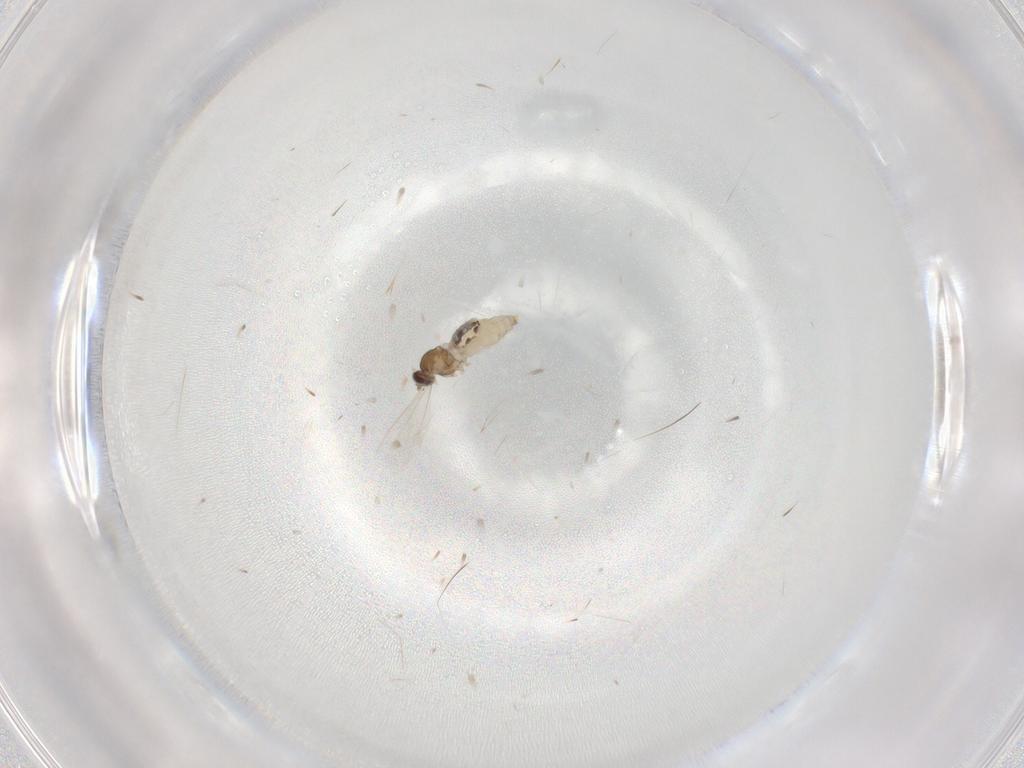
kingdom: Animalia
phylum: Arthropoda
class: Insecta
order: Diptera
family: Cecidomyiidae
